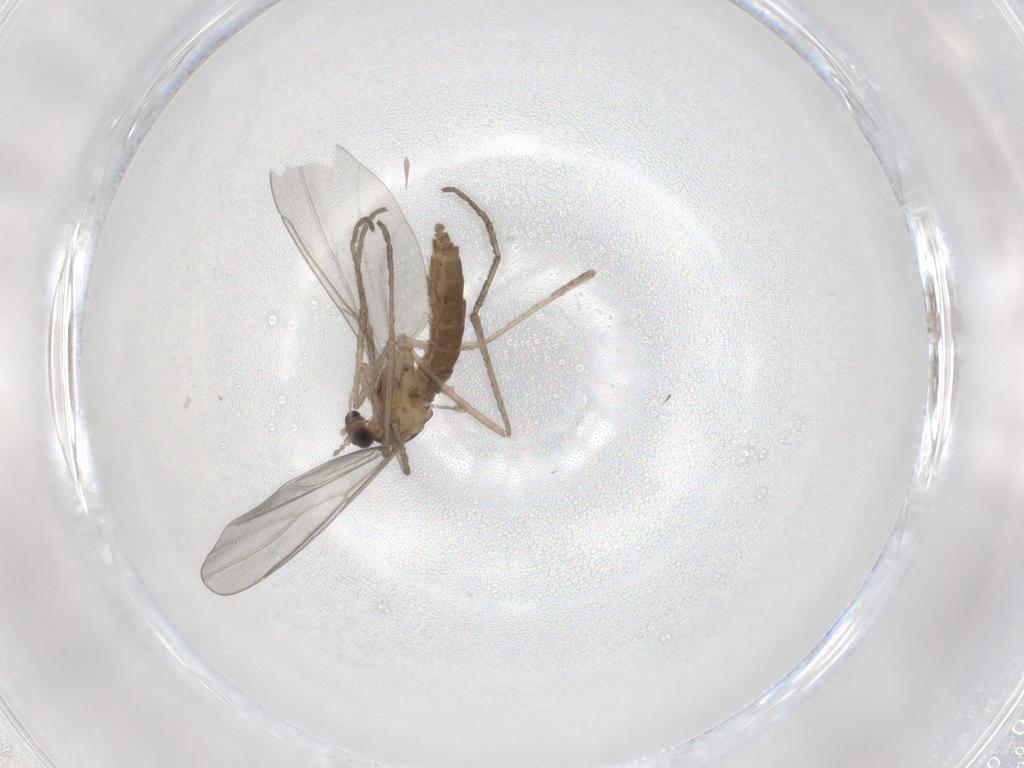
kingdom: Animalia
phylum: Arthropoda
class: Insecta
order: Diptera
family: Cecidomyiidae
